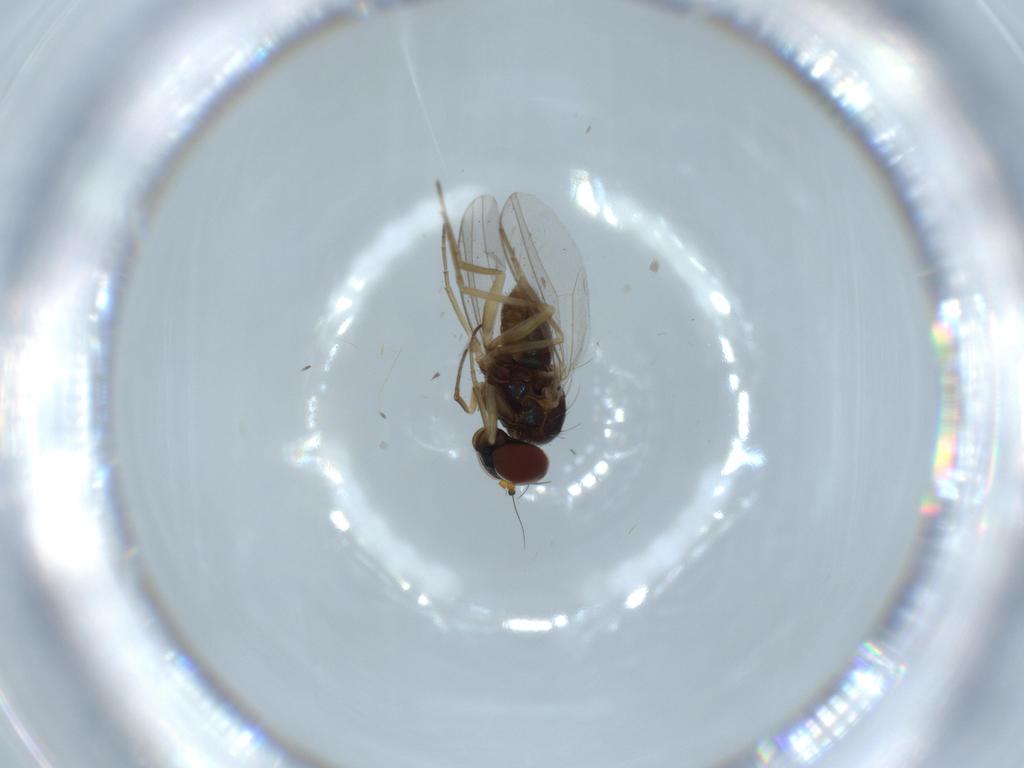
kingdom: Animalia
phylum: Arthropoda
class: Insecta
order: Diptera
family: Dolichopodidae
